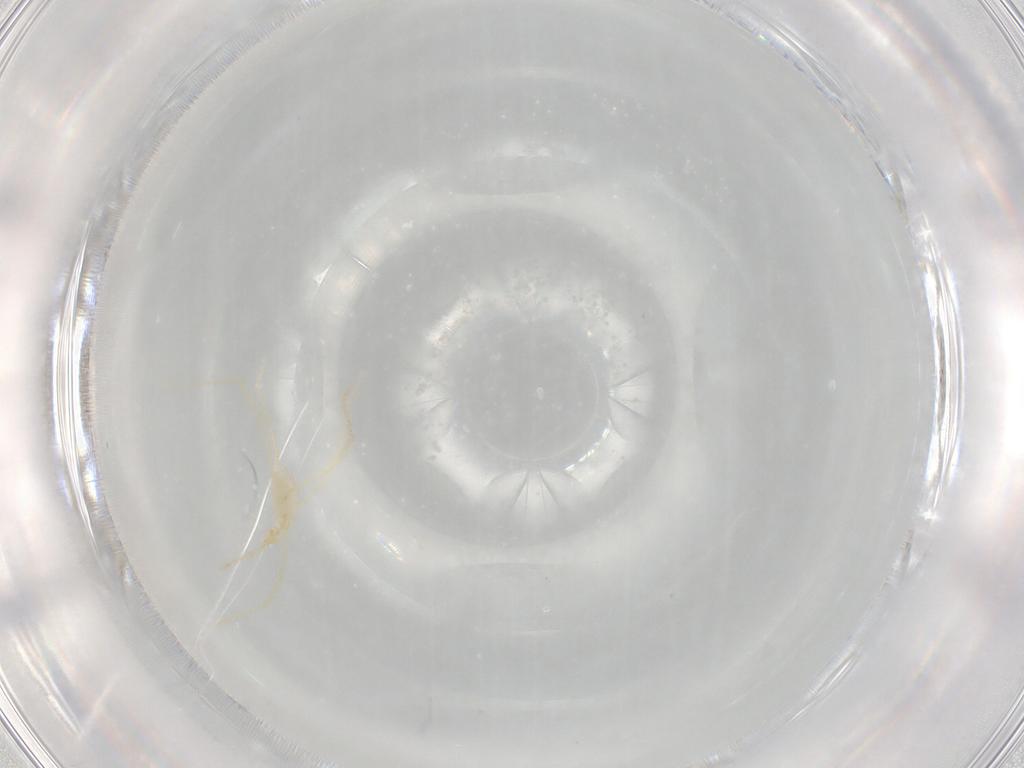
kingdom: Animalia
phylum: Arthropoda
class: Insecta
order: Diptera
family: Phoridae
